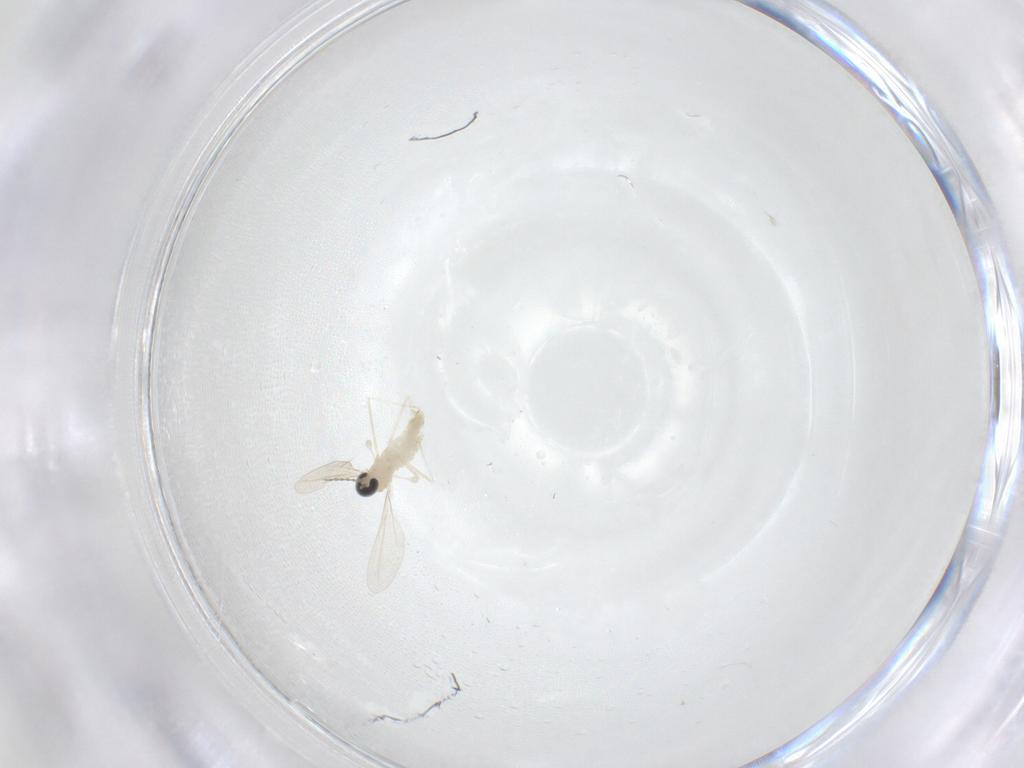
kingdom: Animalia
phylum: Arthropoda
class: Insecta
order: Diptera
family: Cecidomyiidae
